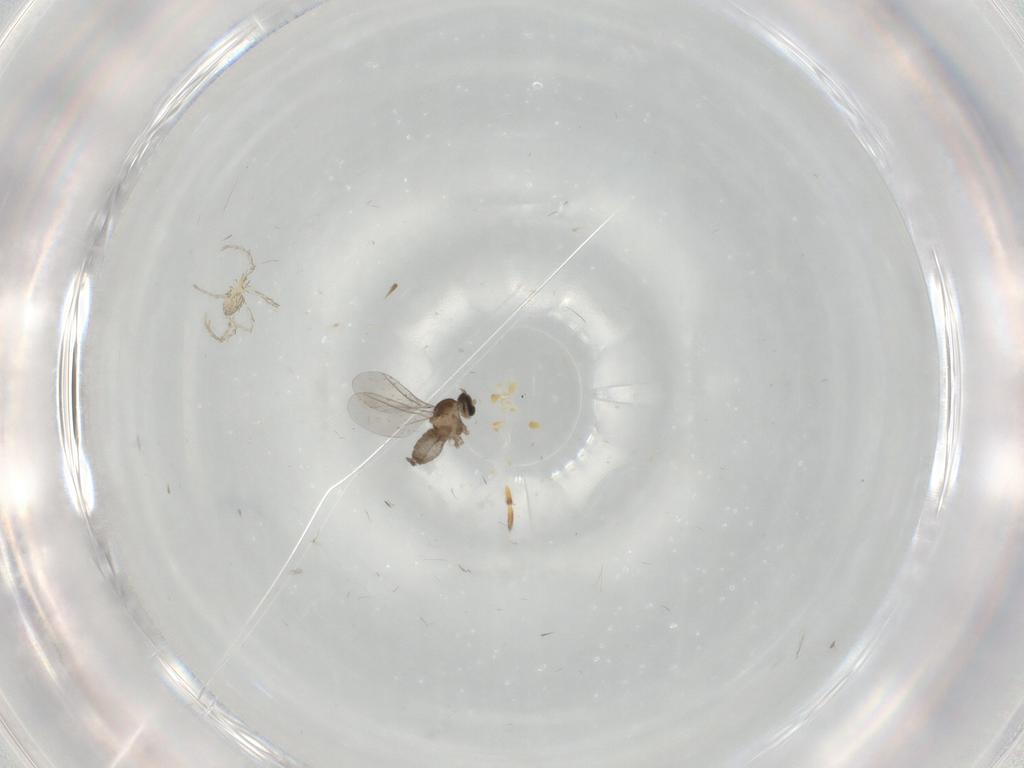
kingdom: Animalia
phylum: Arthropoda
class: Insecta
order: Diptera
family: Cecidomyiidae
